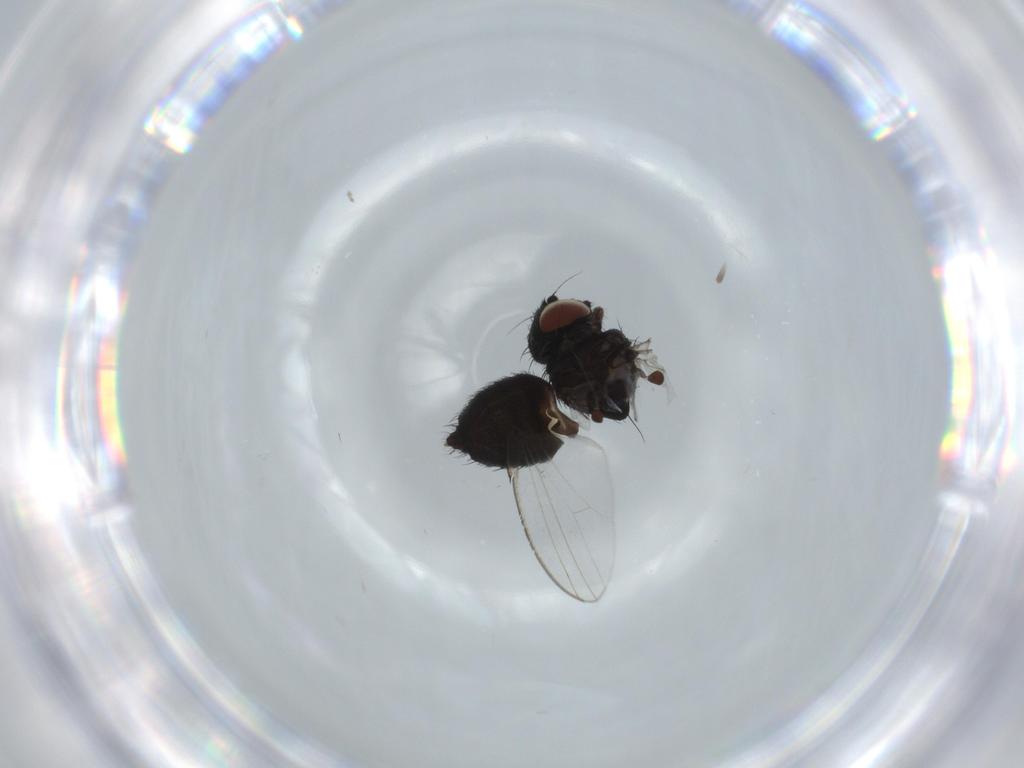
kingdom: Animalia
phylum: Arthropoda
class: Insecta
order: Diptera
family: Milichiidae
